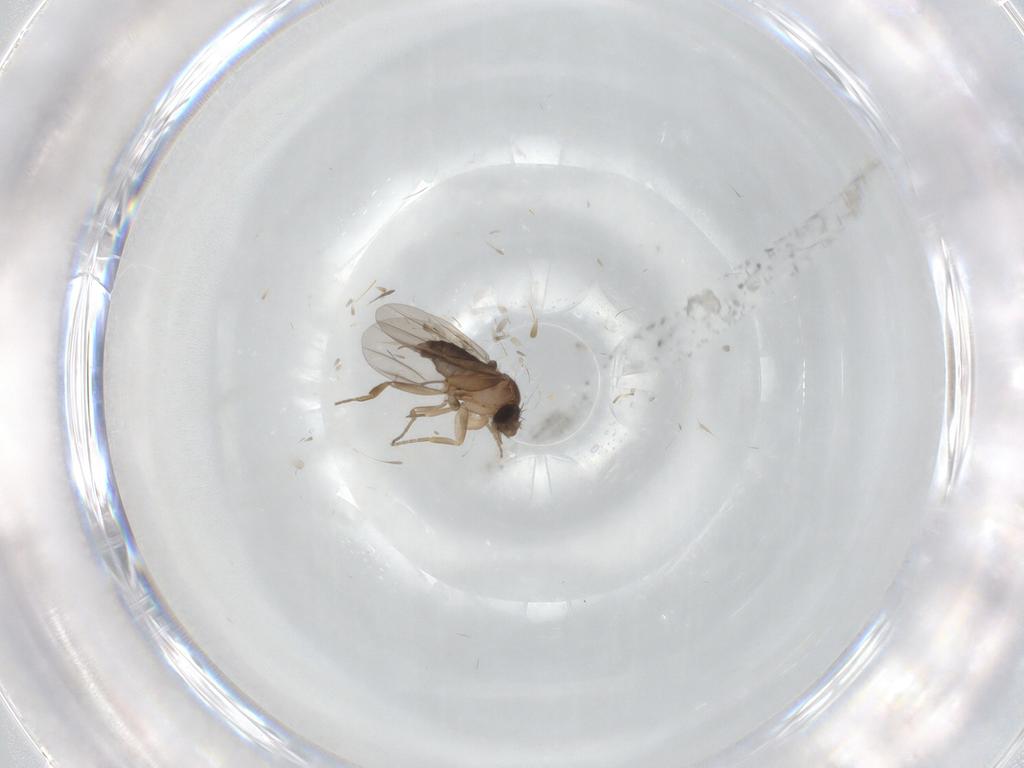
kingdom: Animalia
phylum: Arthropoda
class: Insecta
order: Diptera
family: Phoridae
